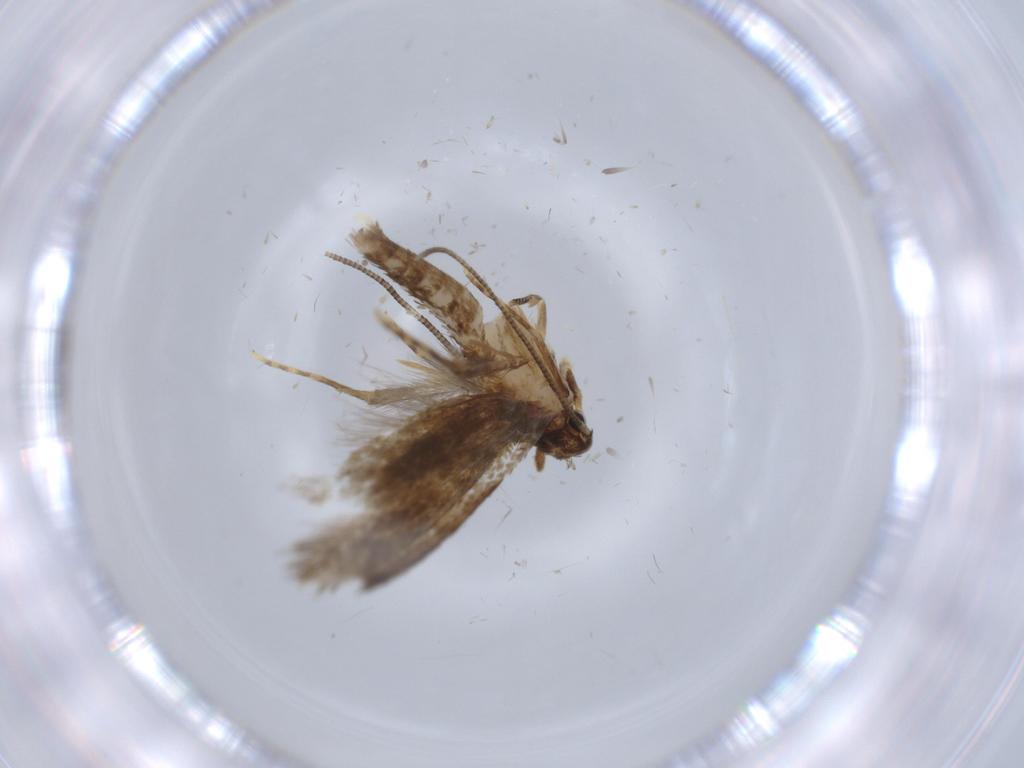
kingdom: Animalia
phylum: Arthropoda
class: Insecta
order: Lepidoptera
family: Tineidae
